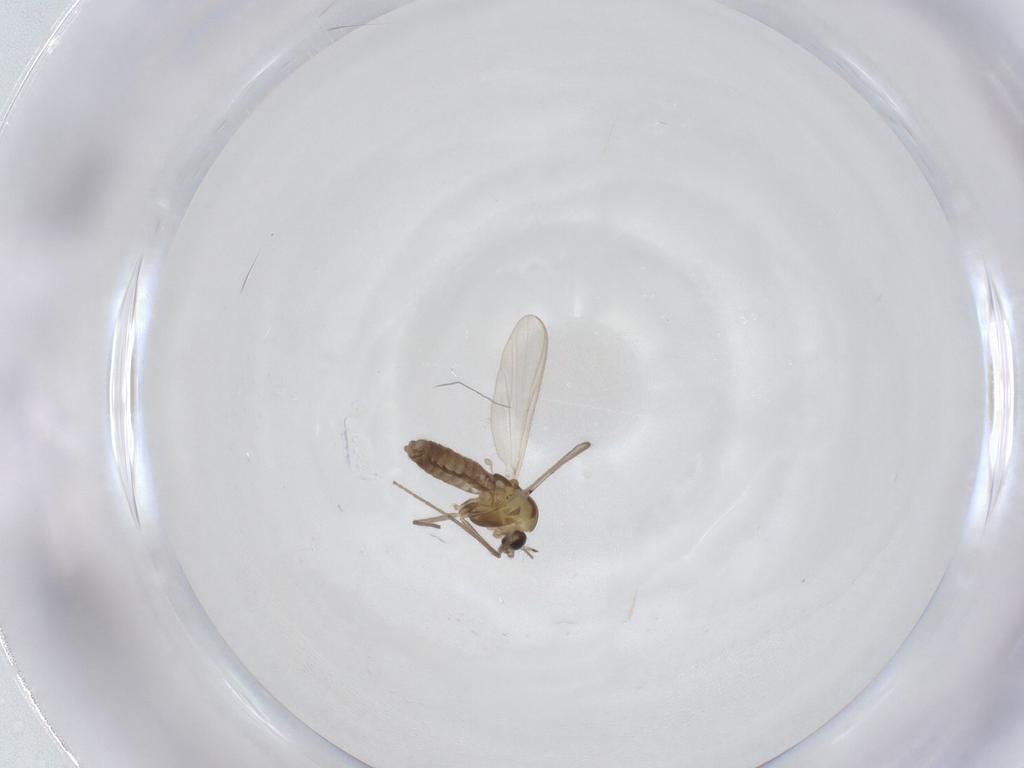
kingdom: Animalia
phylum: Arthropoda
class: Insecta
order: Diptera
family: Chironomidae
